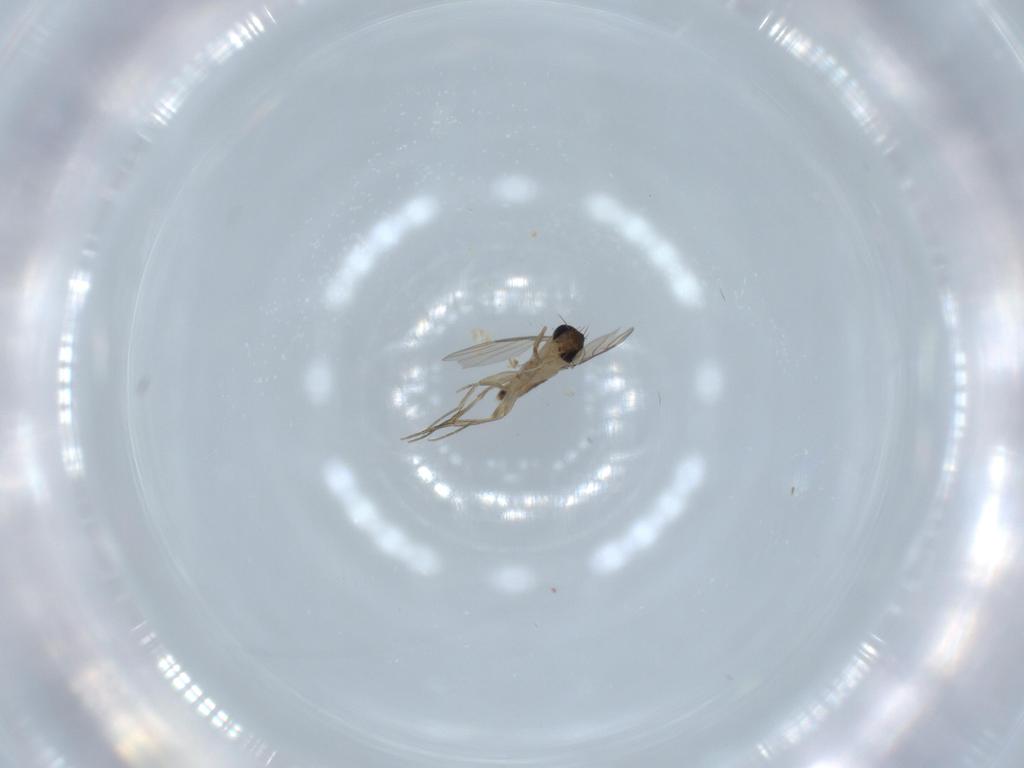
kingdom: Animalia
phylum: Arthropoda
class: Insecta
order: Diptera
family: Phoridae
